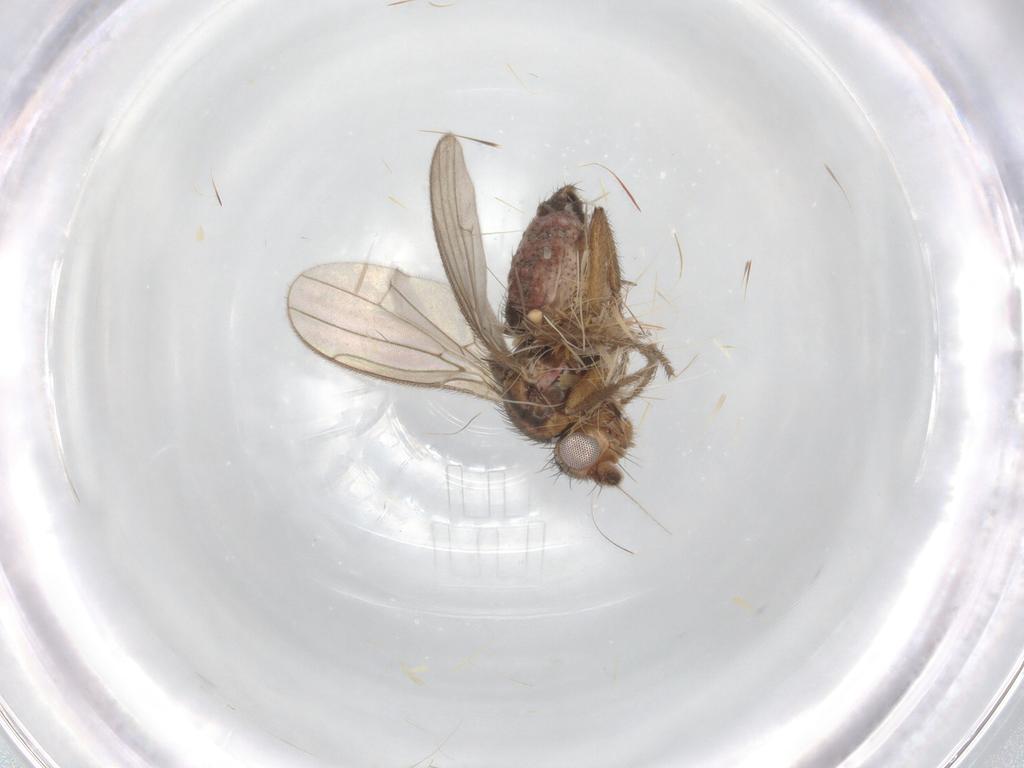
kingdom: Animalia
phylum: Arthropoda
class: Insecta
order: Diptera
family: Sphaeroceridae
